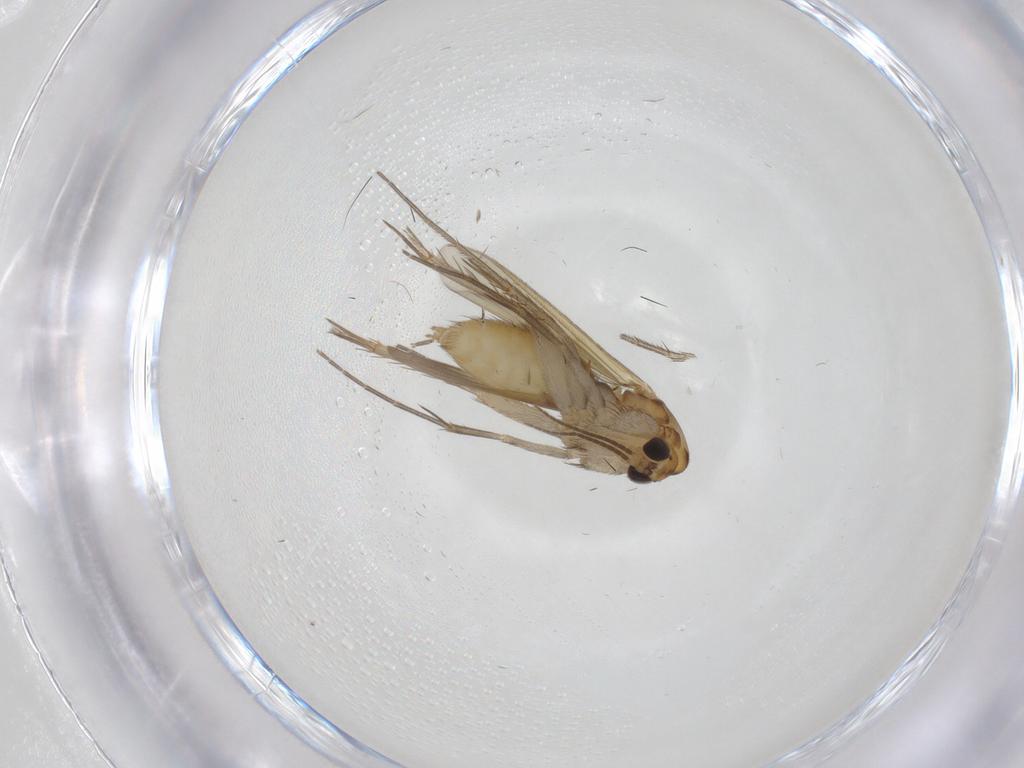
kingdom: Animalia
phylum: Arthropoda
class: Insecta
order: Diptera
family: Mycetophilidae
